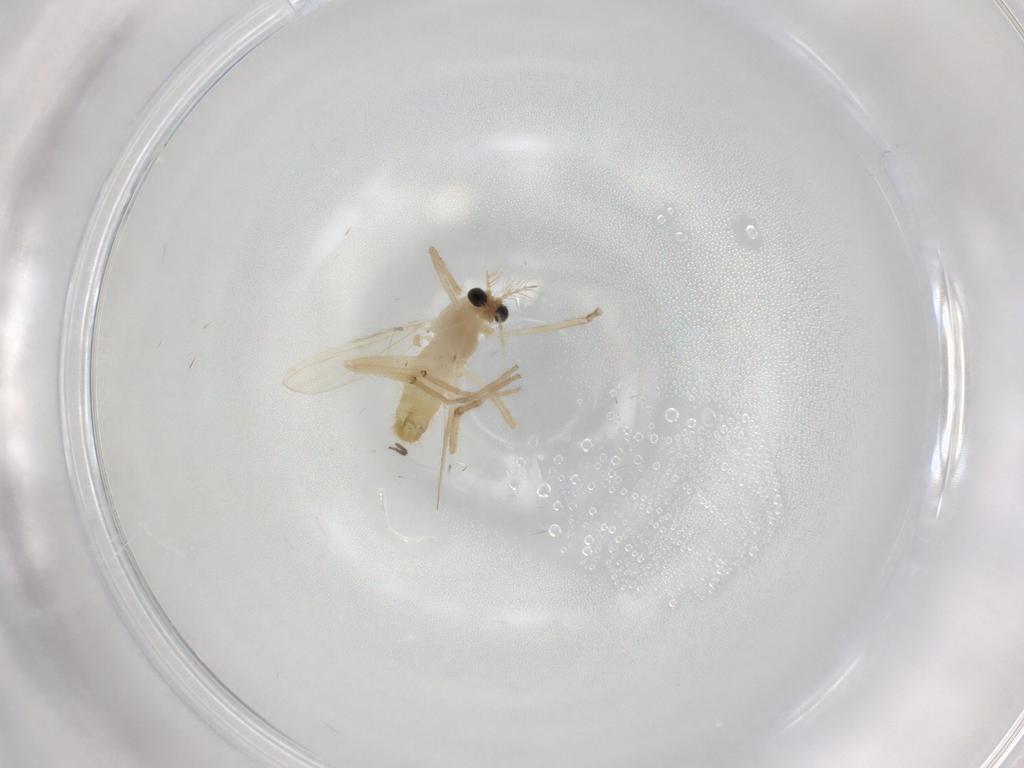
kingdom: Animalia
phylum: Arthropoda
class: Insecta
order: Diptera
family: Chironomidae
